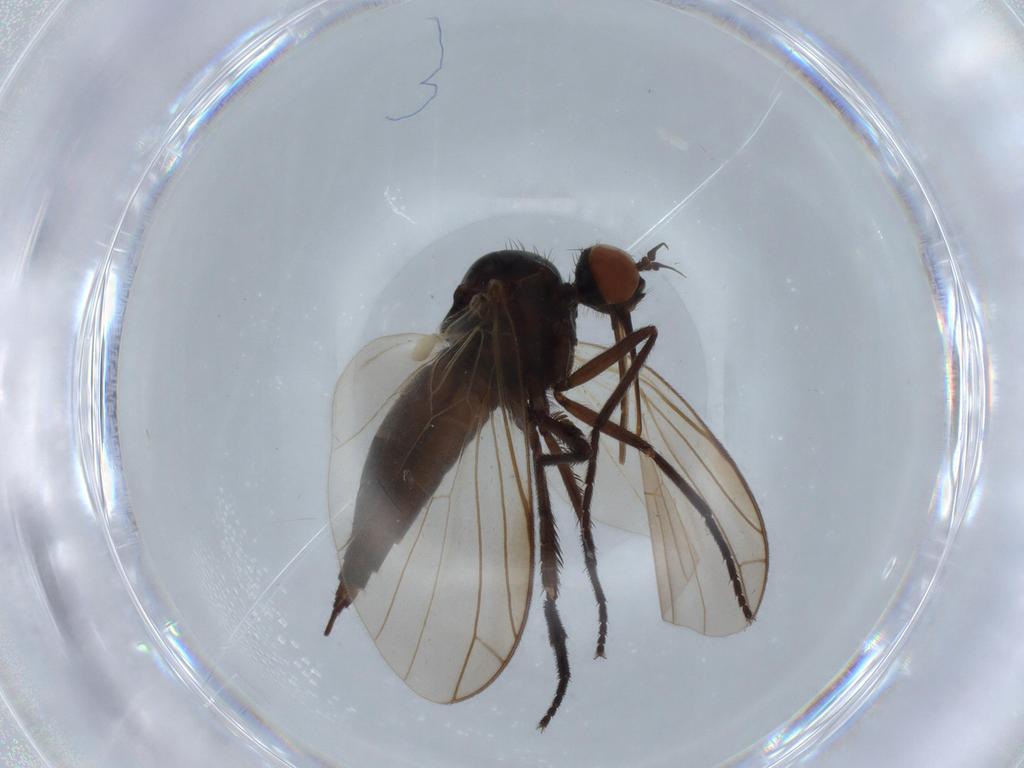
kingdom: Animalia
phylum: Arthropoda
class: Insecta
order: Diptera
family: Empididae
